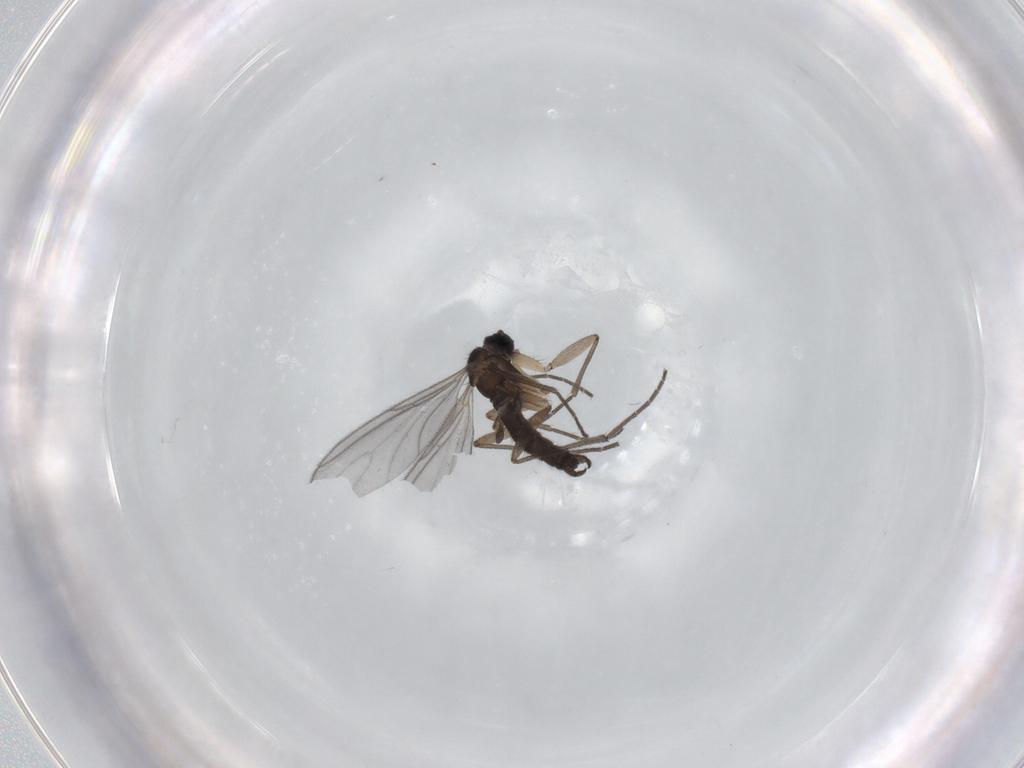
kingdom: Animalia
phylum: Arthropoda
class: Insecta
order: Diptera
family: Sciaridae
